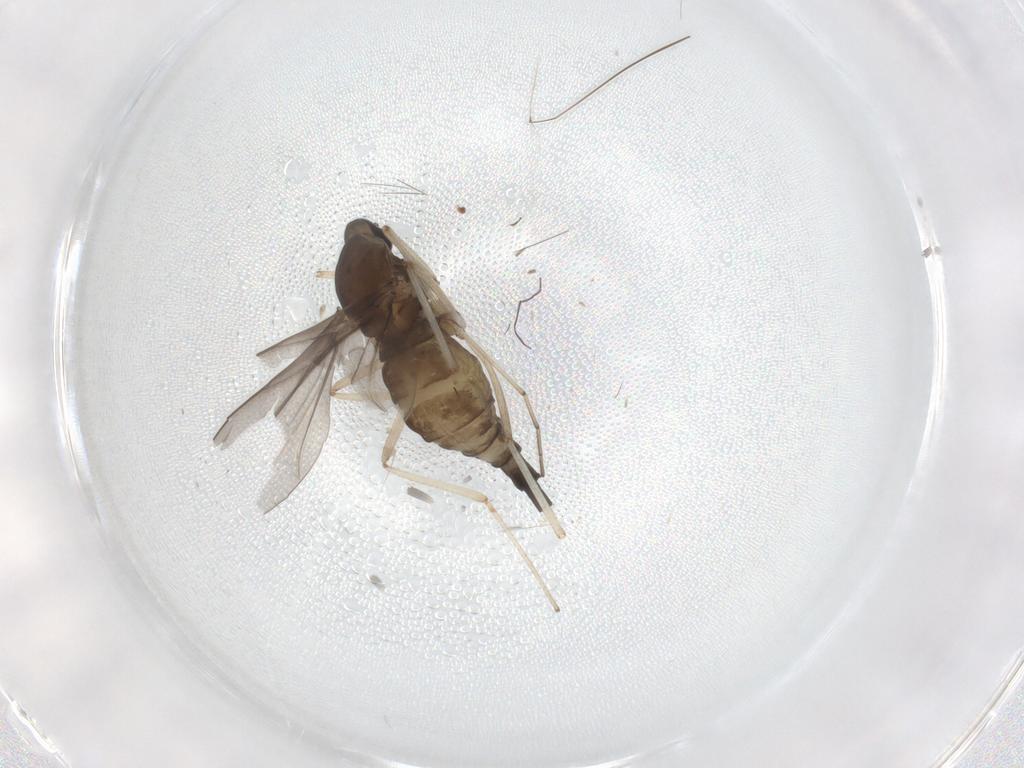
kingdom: Animalia
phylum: Arthropoda
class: Insecta
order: Diptera
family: Cecidomyiidae
